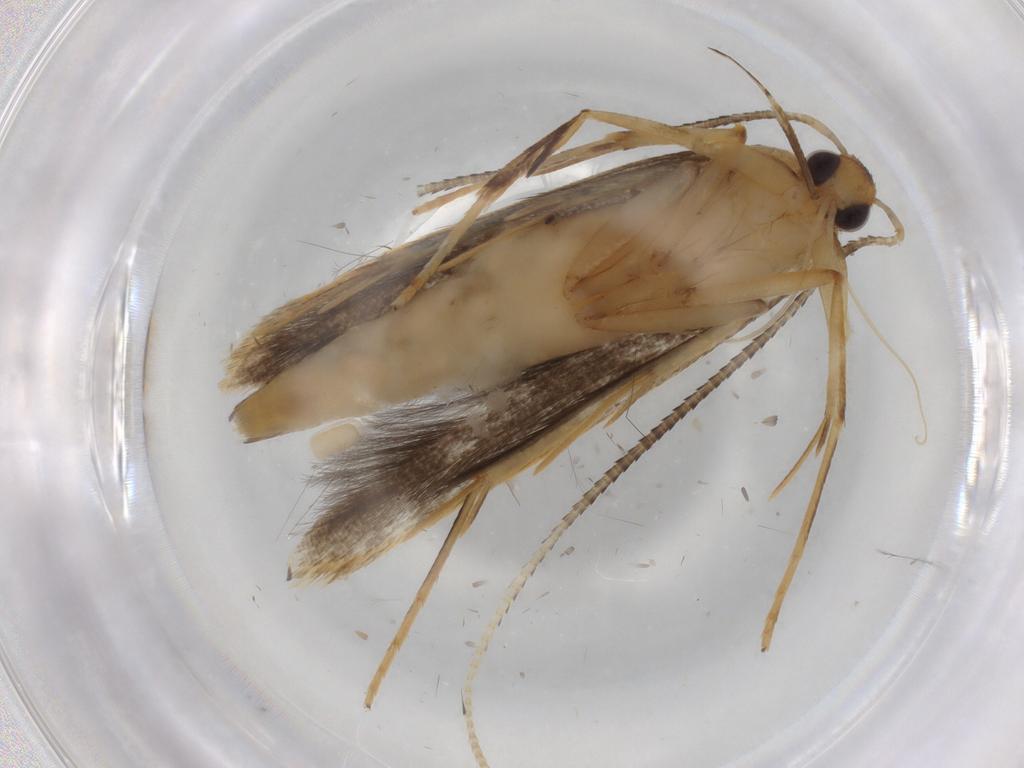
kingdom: Animalia
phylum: Arthropoda
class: Insecta
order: Lepidoptera
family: Pterolonchidae
